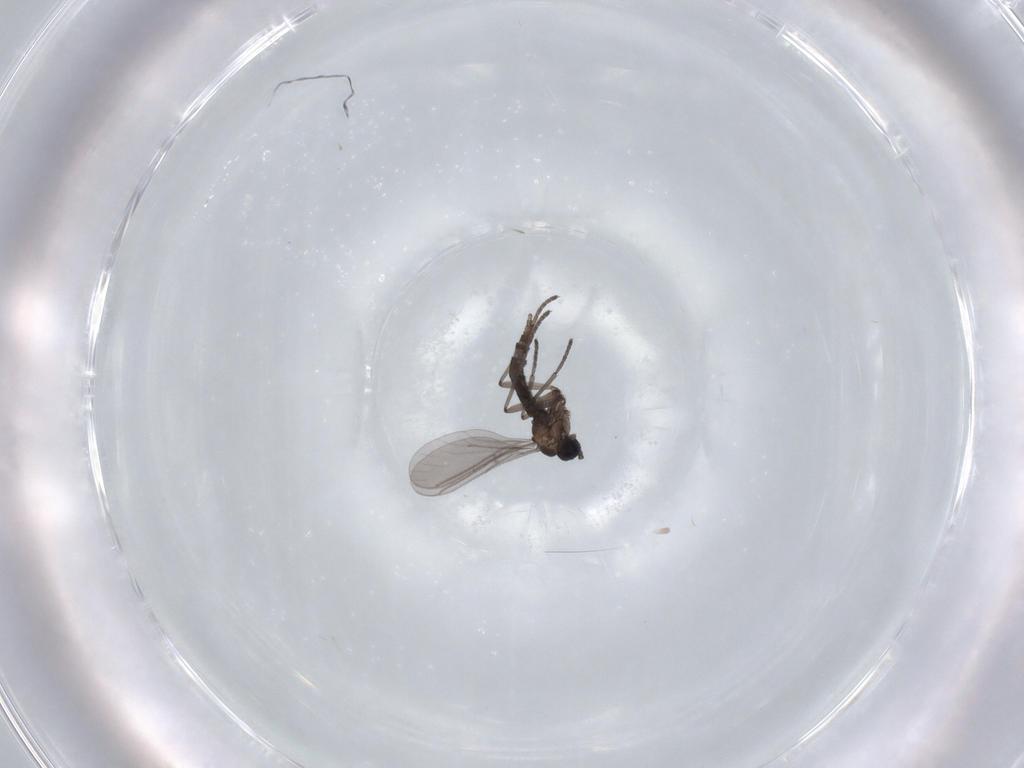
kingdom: Animalia
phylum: Arthropoda
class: Insecta
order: Diptera
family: Sciaridae
